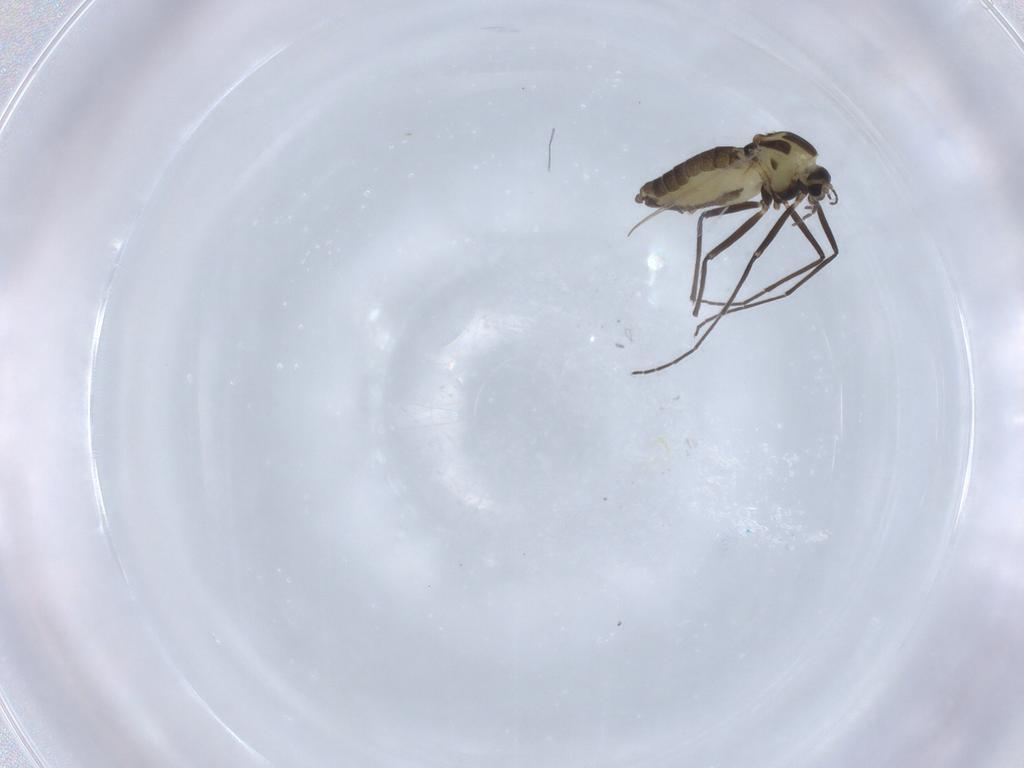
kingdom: Animalia
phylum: Arthropoda
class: Insecta
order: Diptera
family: Chironomidae
